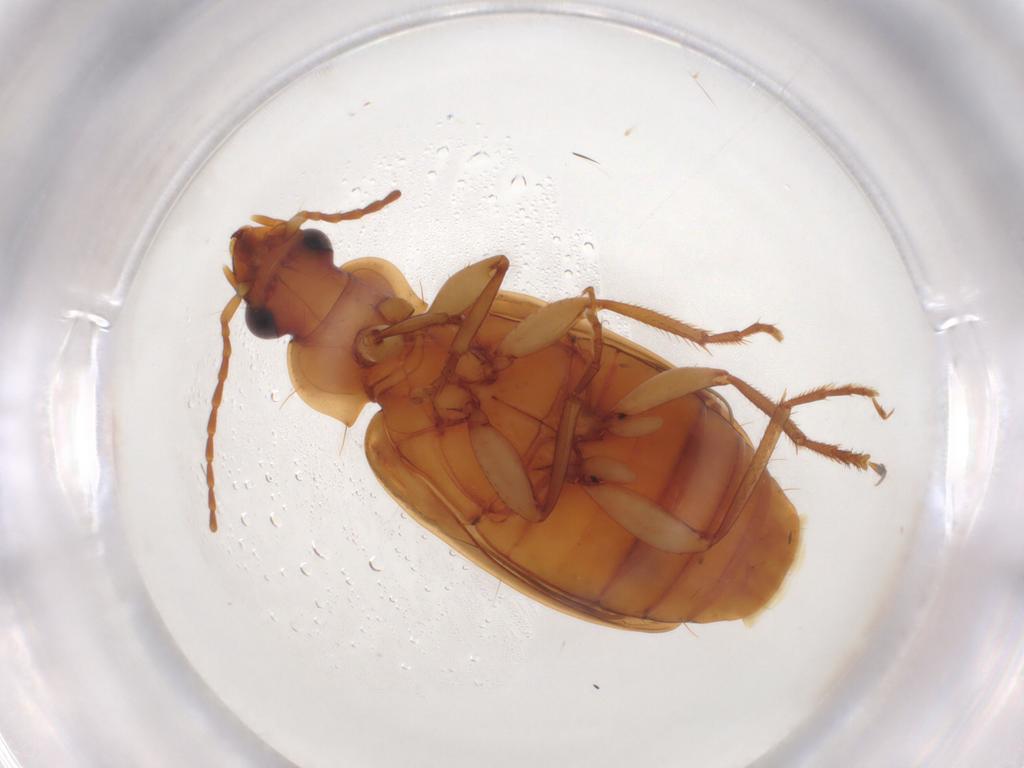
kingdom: Animalia
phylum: Arthropoda
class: Insecta
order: Coleoptera
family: Carabidae
